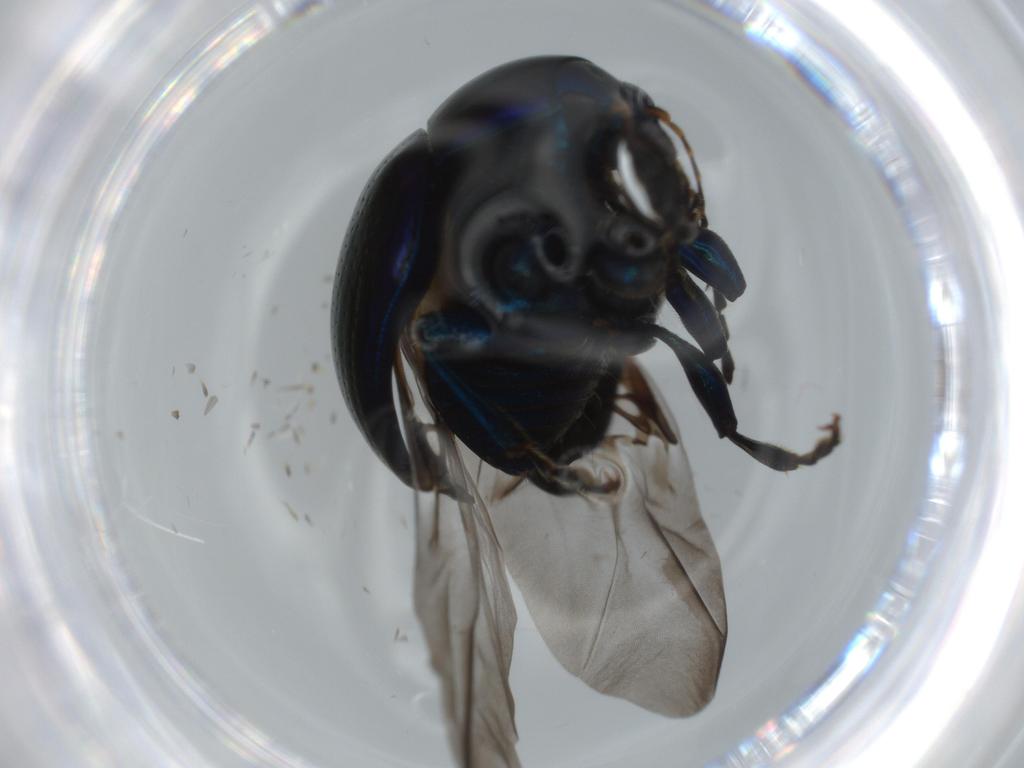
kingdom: Animalia
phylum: Arthropoda
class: Insecta
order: Coleoptera
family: Chrysomelidae
